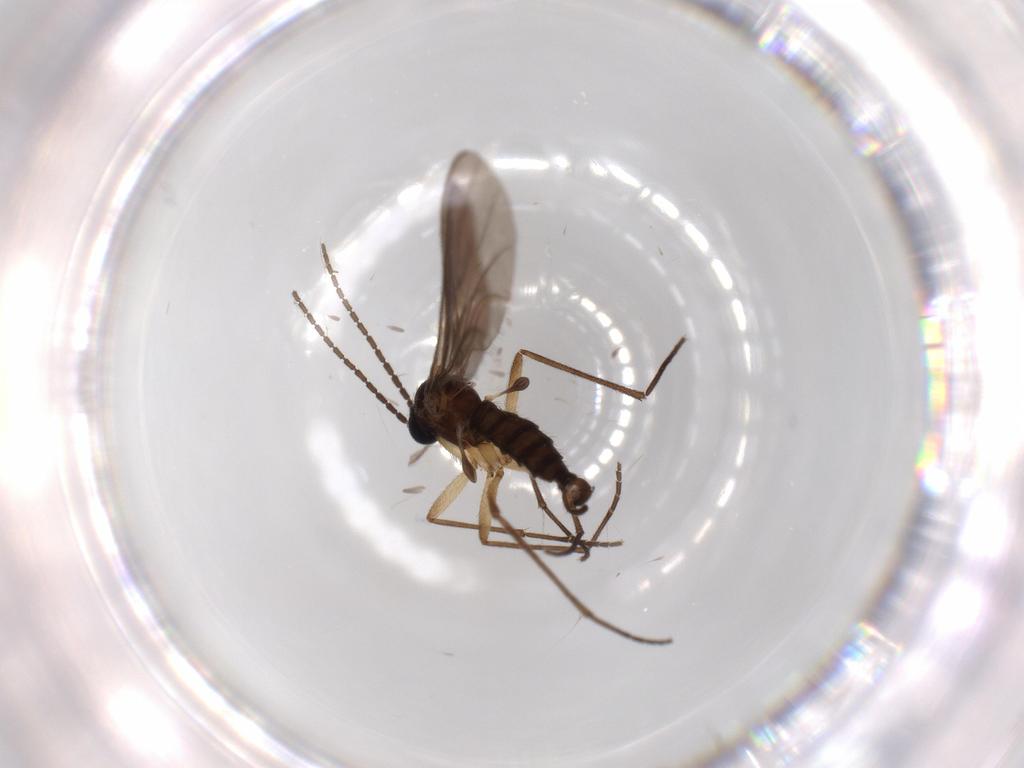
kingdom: Animalia
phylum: Arthropoda
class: Insecta
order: Diptera
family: Sciaridae
